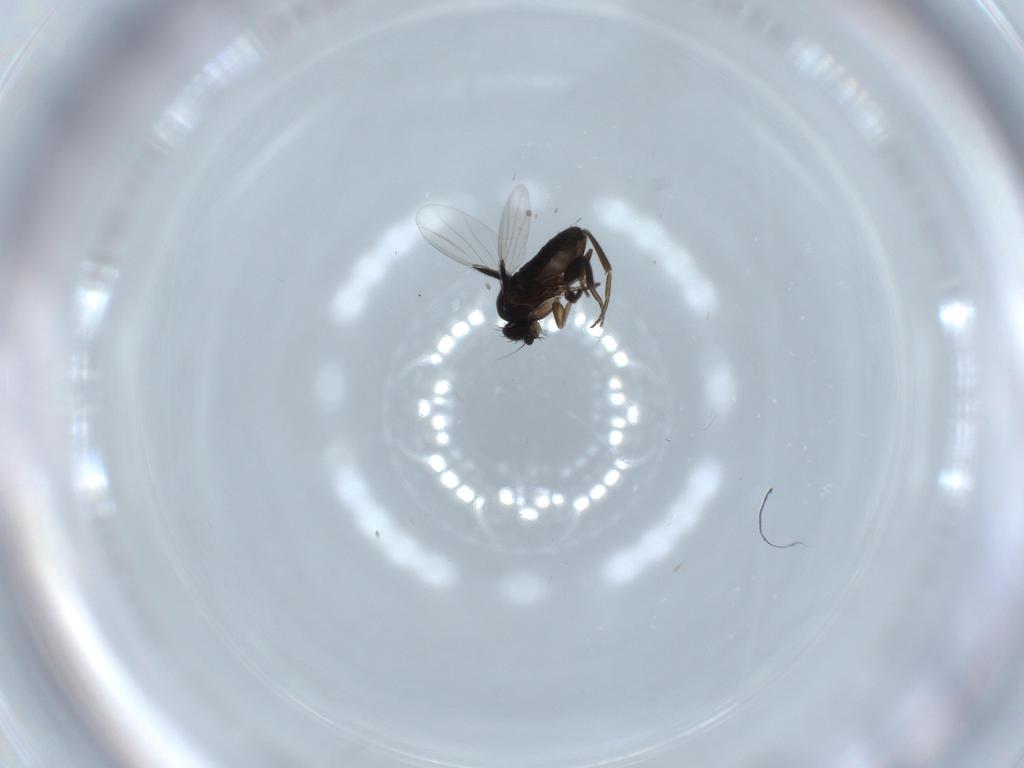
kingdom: Animalia
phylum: Arthropoda
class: Insecta
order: Diptera
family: Phoridae
